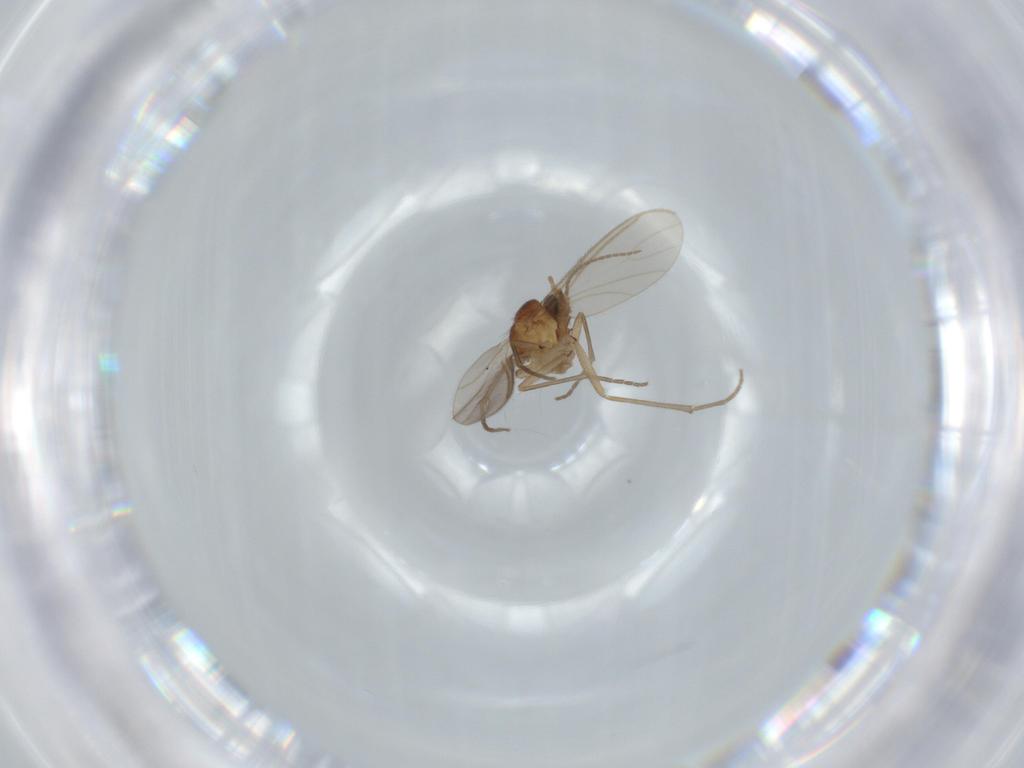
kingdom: Animalia
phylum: Arthropoda
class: Insecta
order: Diptera
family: Sciaridae
